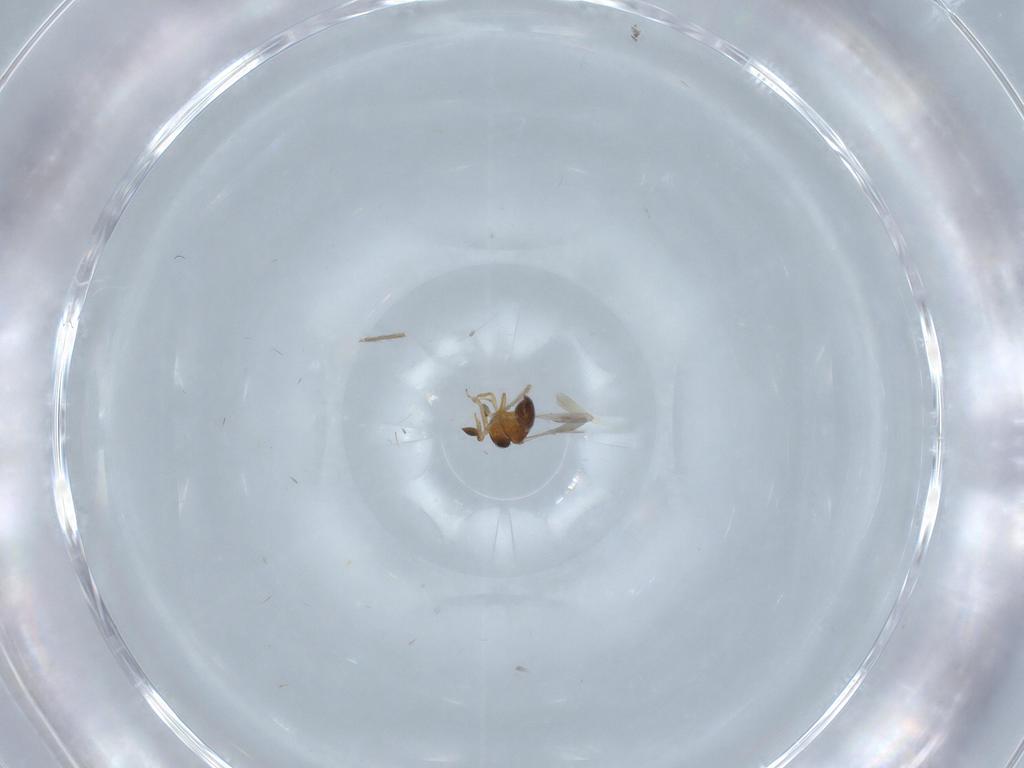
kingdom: Animalia
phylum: Arthropoda
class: Insecta
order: Hymenoptera
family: Scelionidae
